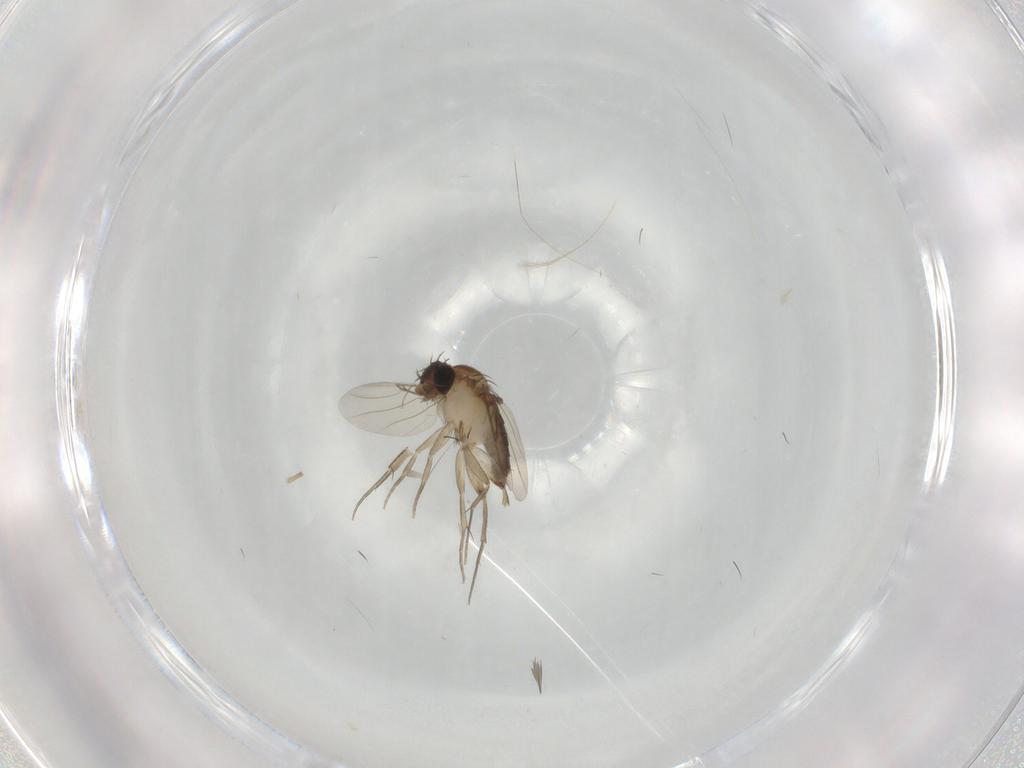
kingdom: Animalia
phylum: Arthropoda
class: Insecta
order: Diptera
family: Phoridae
